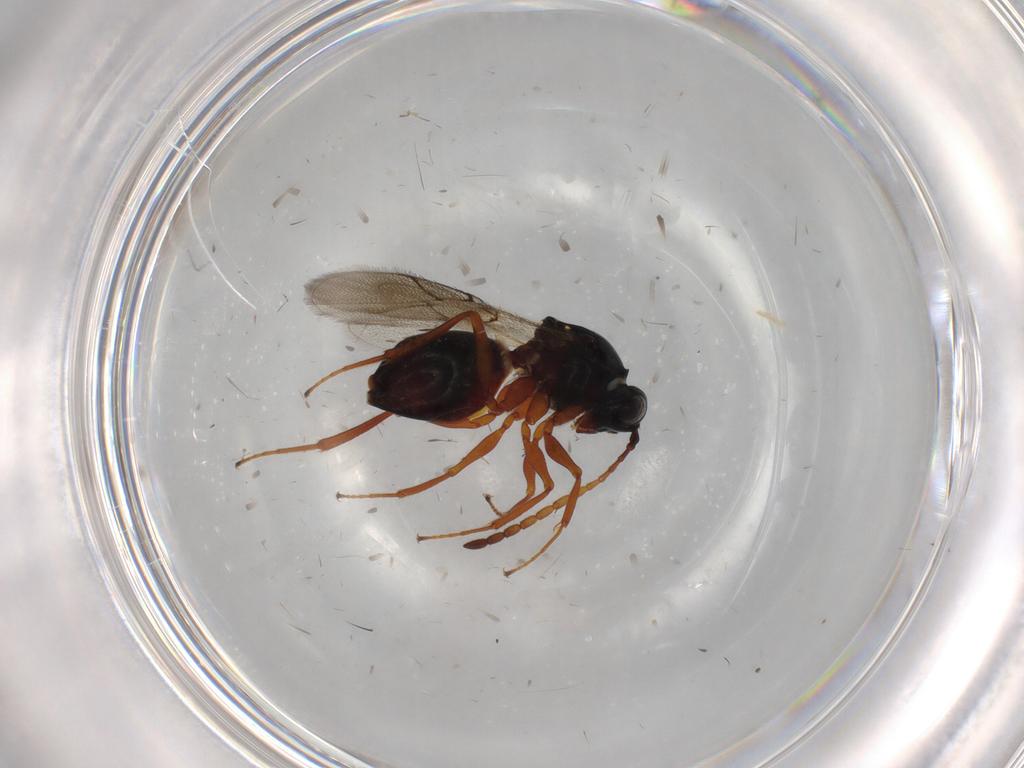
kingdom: Animalia
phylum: Arthropoda
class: Insecta
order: Hymenoptera
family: Figitidae
